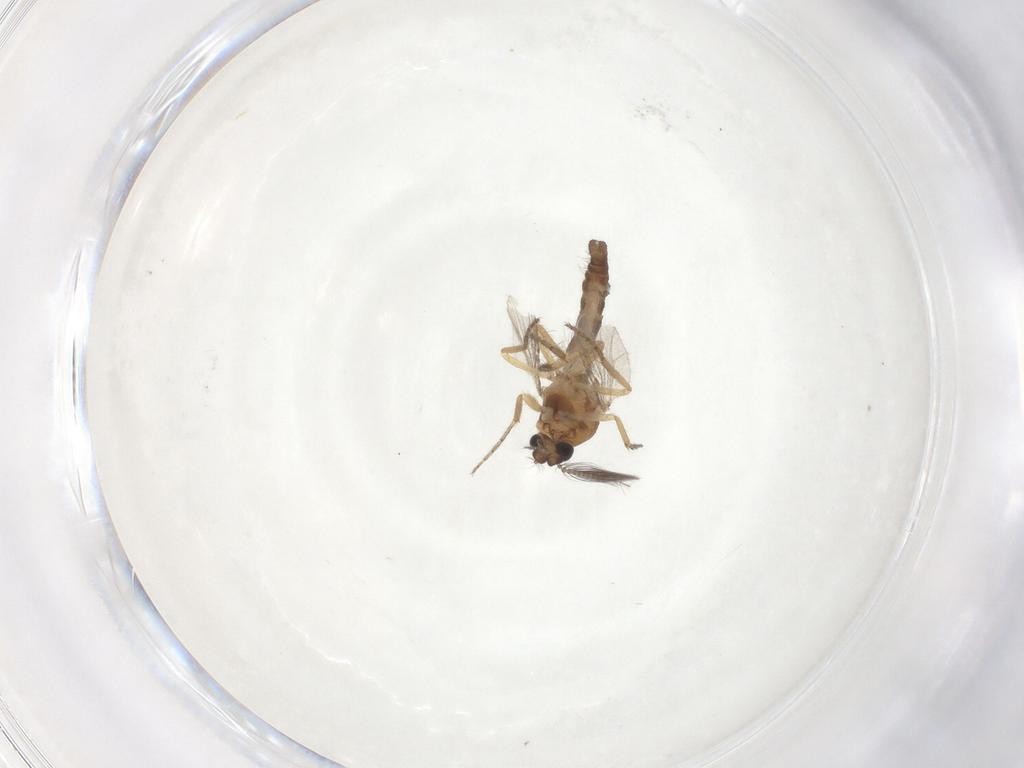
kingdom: Animalia
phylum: Arthropoda
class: Insecta
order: Diptera
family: Ceratopogonidae
